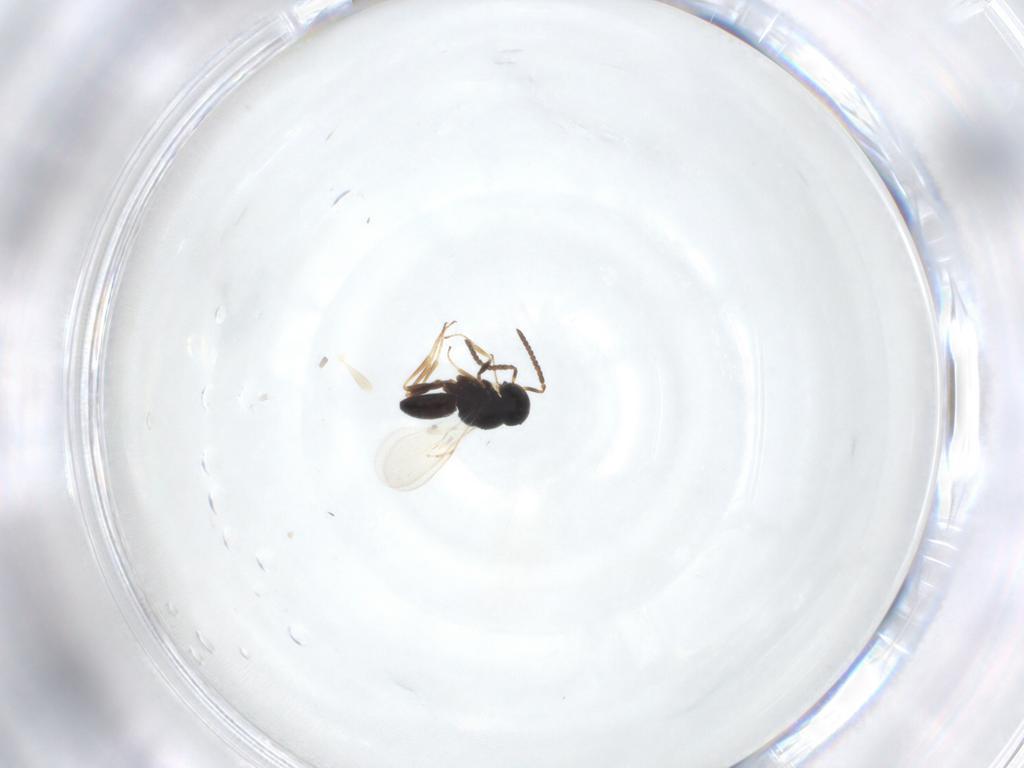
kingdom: Animalia
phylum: Arthropoda
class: Insecta
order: Hymenoptera
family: Scelionidae
